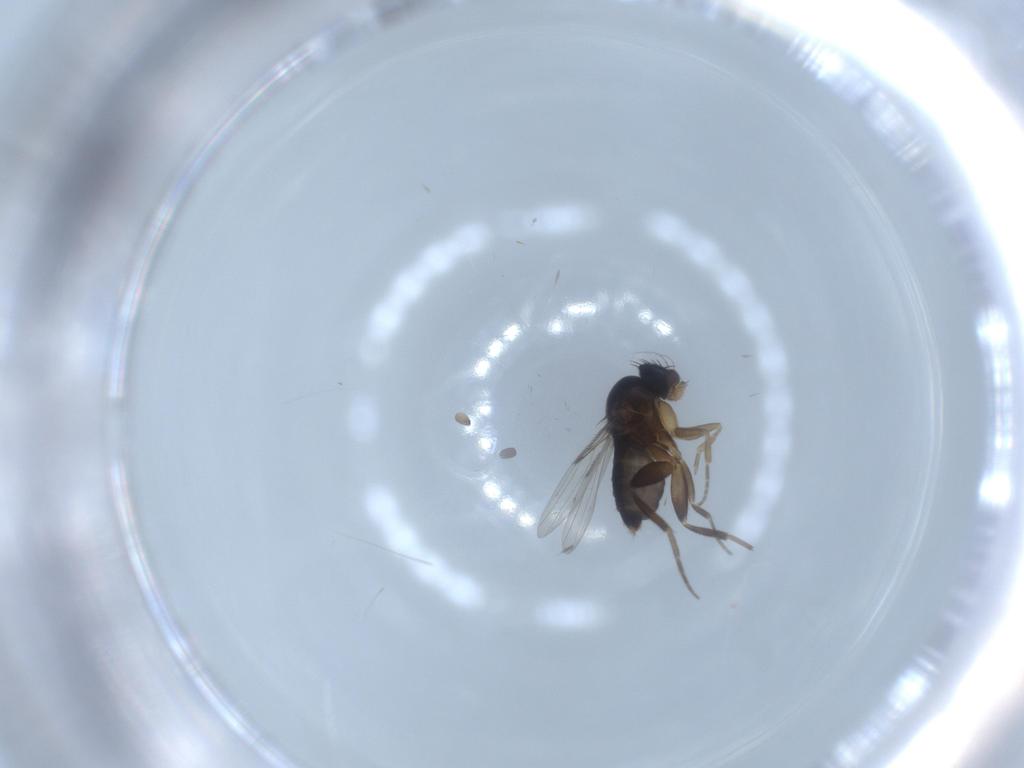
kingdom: Animalia
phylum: Arthropoda
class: Insecta
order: Diptera
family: Phoridae
